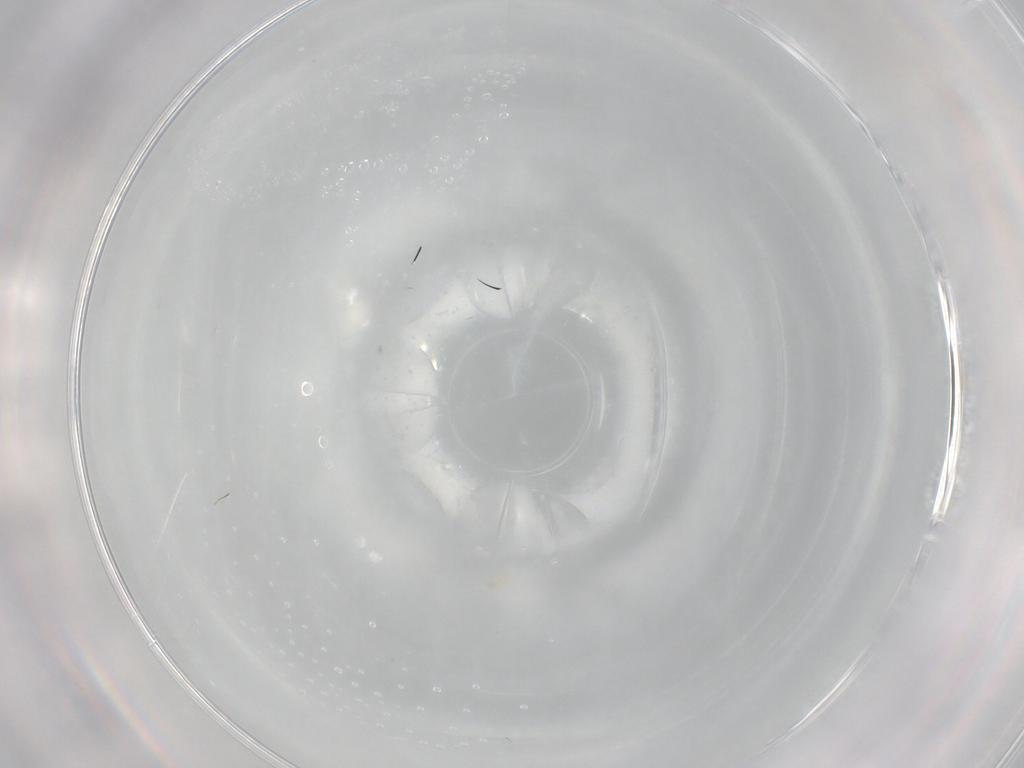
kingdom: Animalia
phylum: Arthropoda
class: Insecta
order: Hymenoptera
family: Mymaridae
